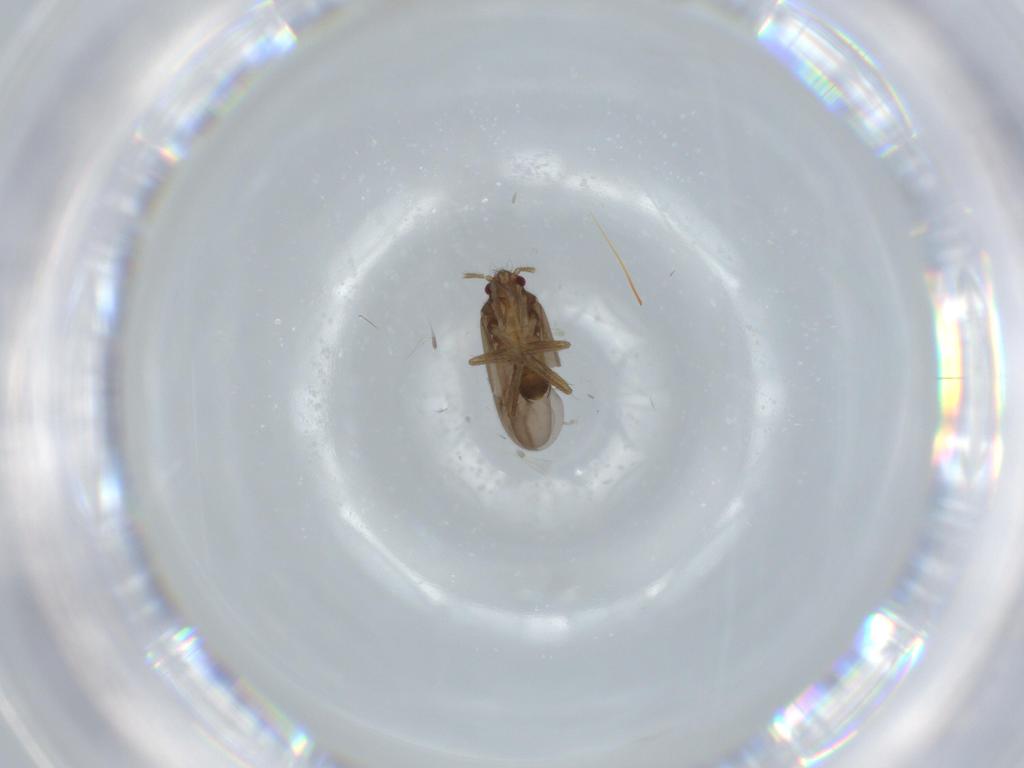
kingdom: Animalia
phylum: Arthropoda
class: Insecta
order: Hemiptera
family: Ceratocombidae
